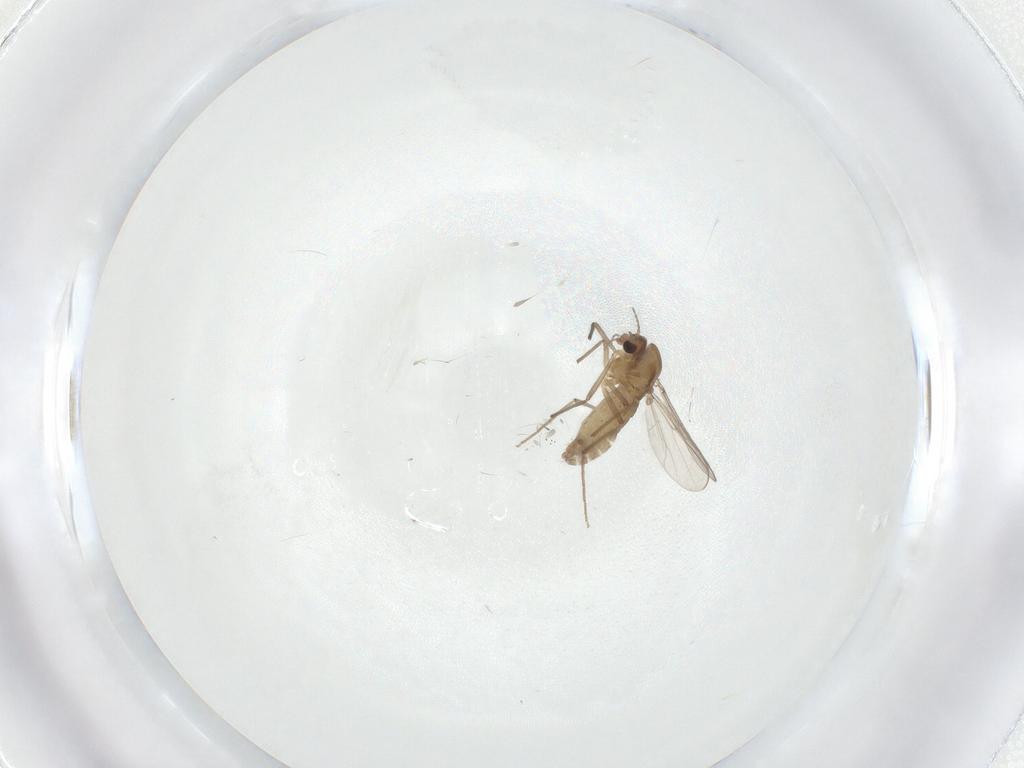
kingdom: Animalia
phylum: Arthropoda
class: Insecta
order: Diptera
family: Chironomidae
